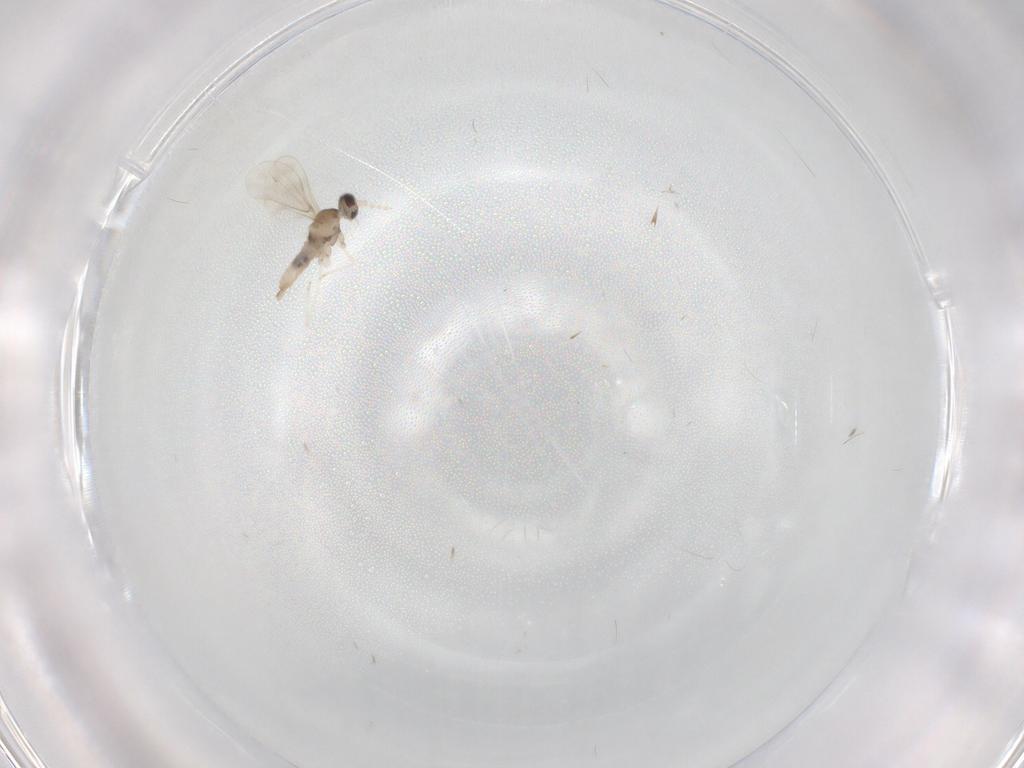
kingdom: Animalia
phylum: Arthropoda
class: Insecta
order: Diptera
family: Cecidomyiidae
